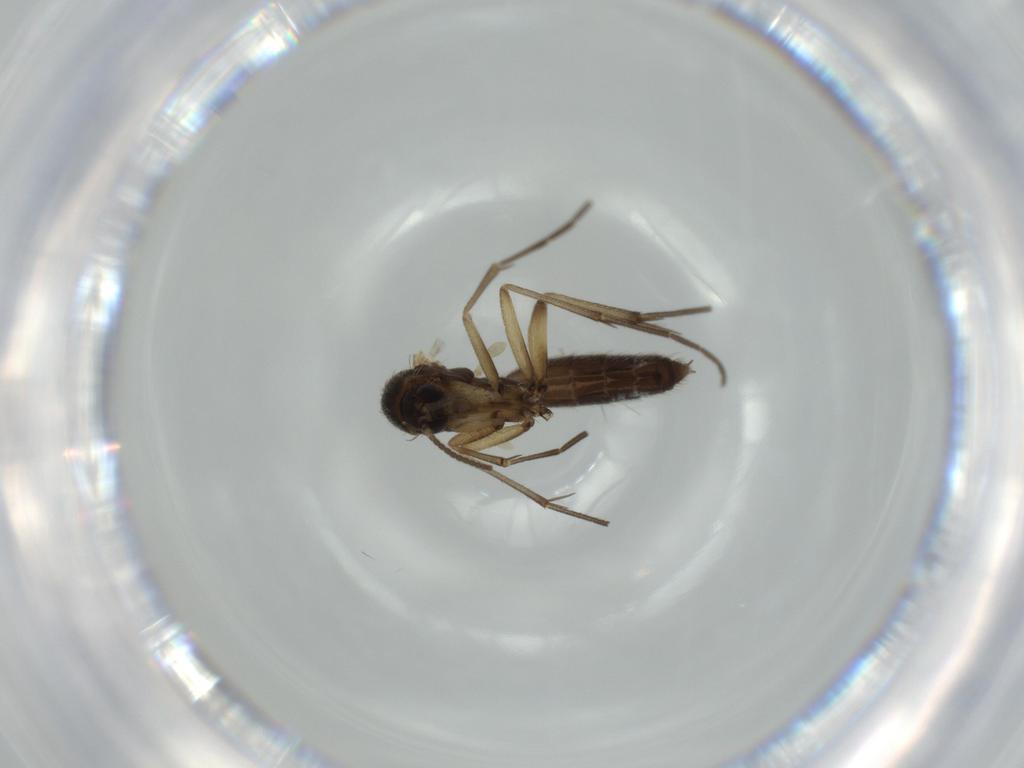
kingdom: Animalia
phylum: Arthropoda
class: Insecta
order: Diptera
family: Mycetophilidae
